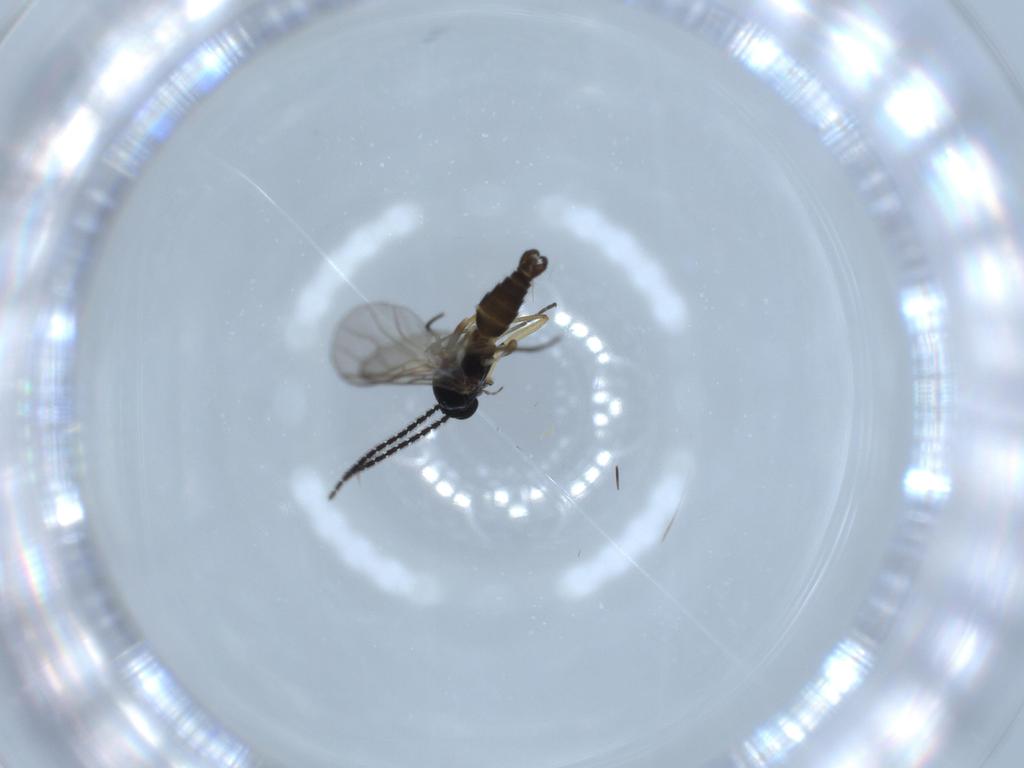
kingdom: Animalia
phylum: Arthropoda
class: Insecta
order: Diptera
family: Sciaridae
